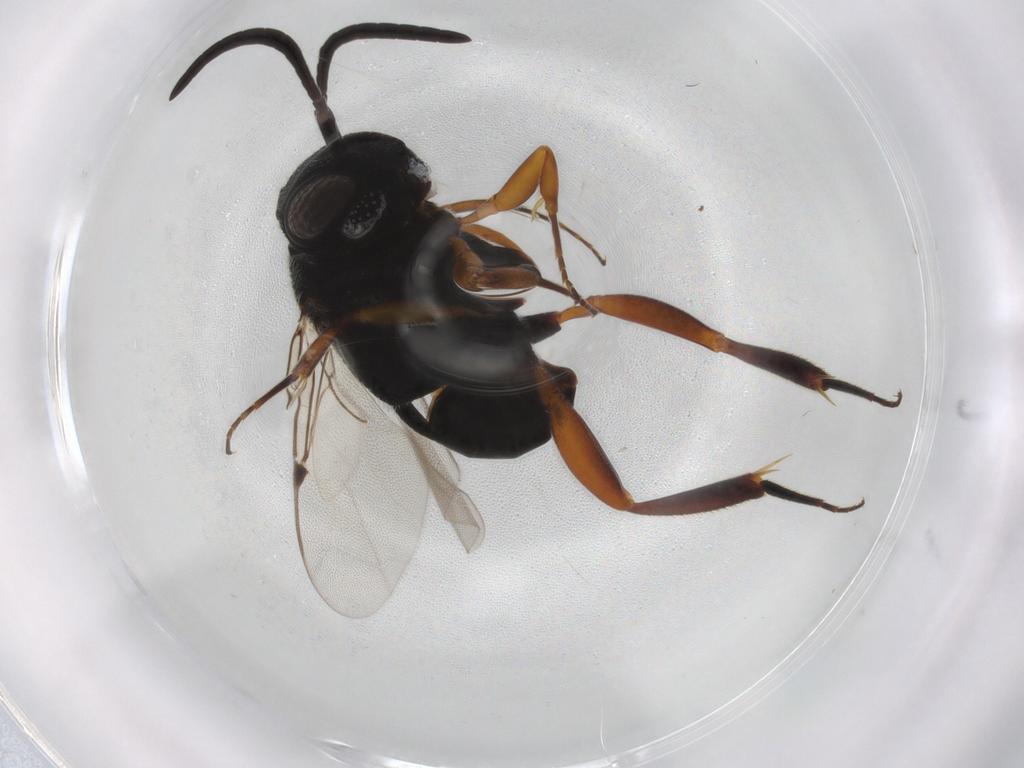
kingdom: Animalia
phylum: Arthropoda
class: Insecta
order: Hymenoptera
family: Evaniidae
